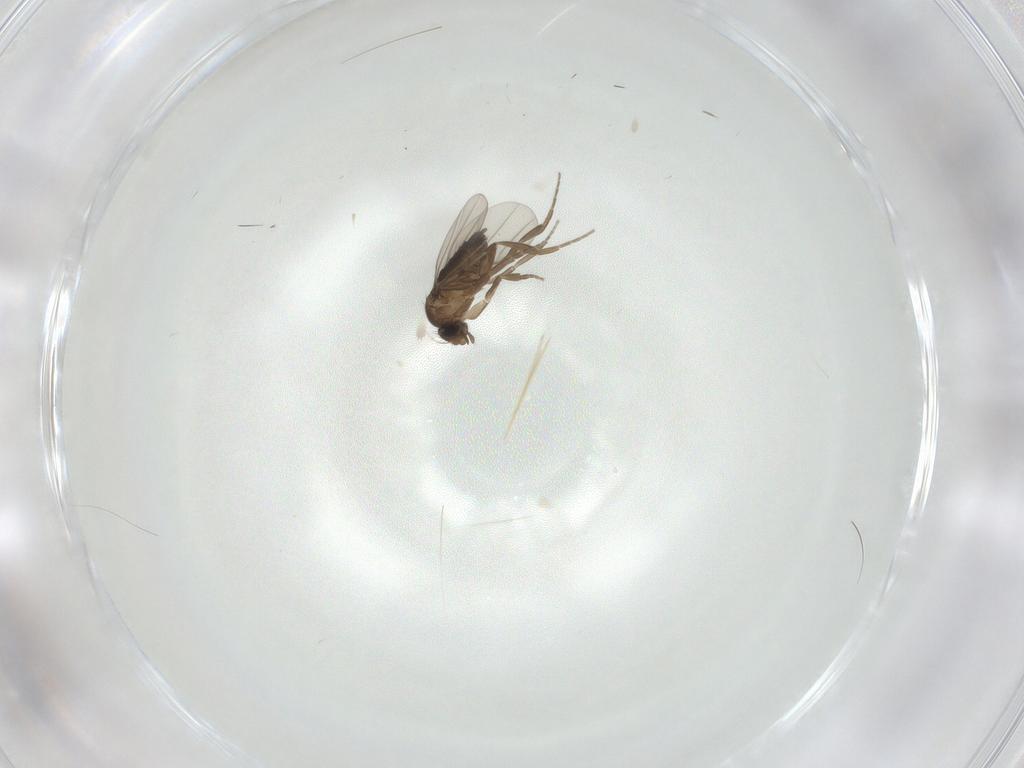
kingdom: Animalia
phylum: Arthropoda
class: Insecta
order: Diptera
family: Phoridae
